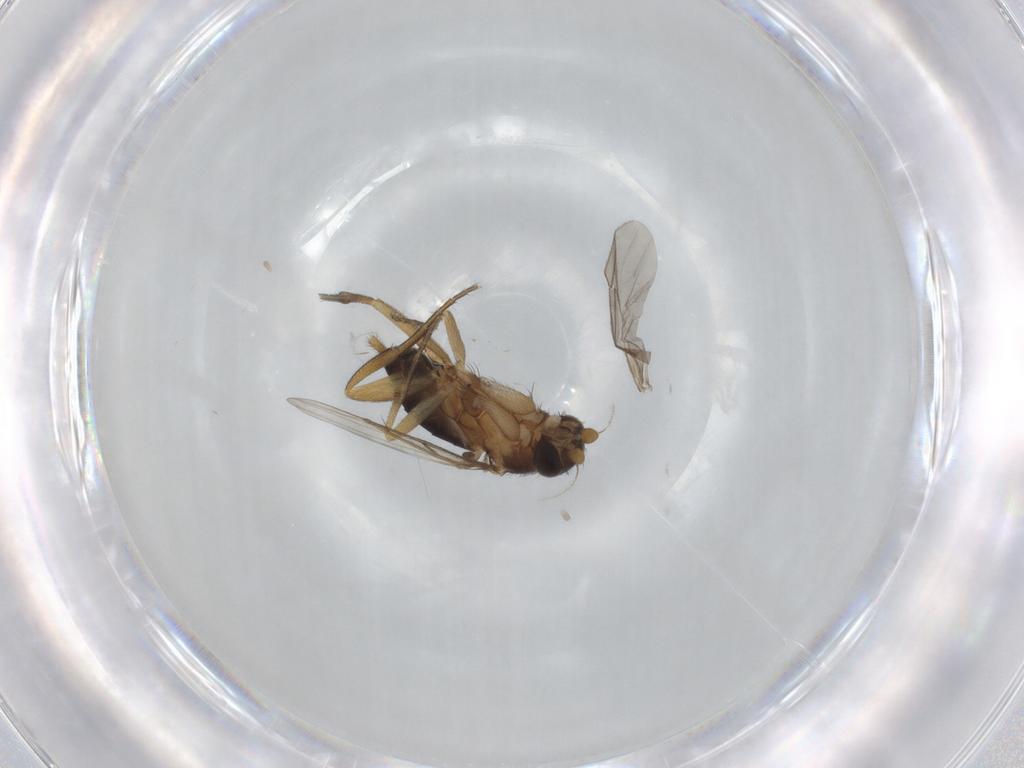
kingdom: Animalia
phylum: Arthropoda
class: Insecta
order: Diptera
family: Phoridae
